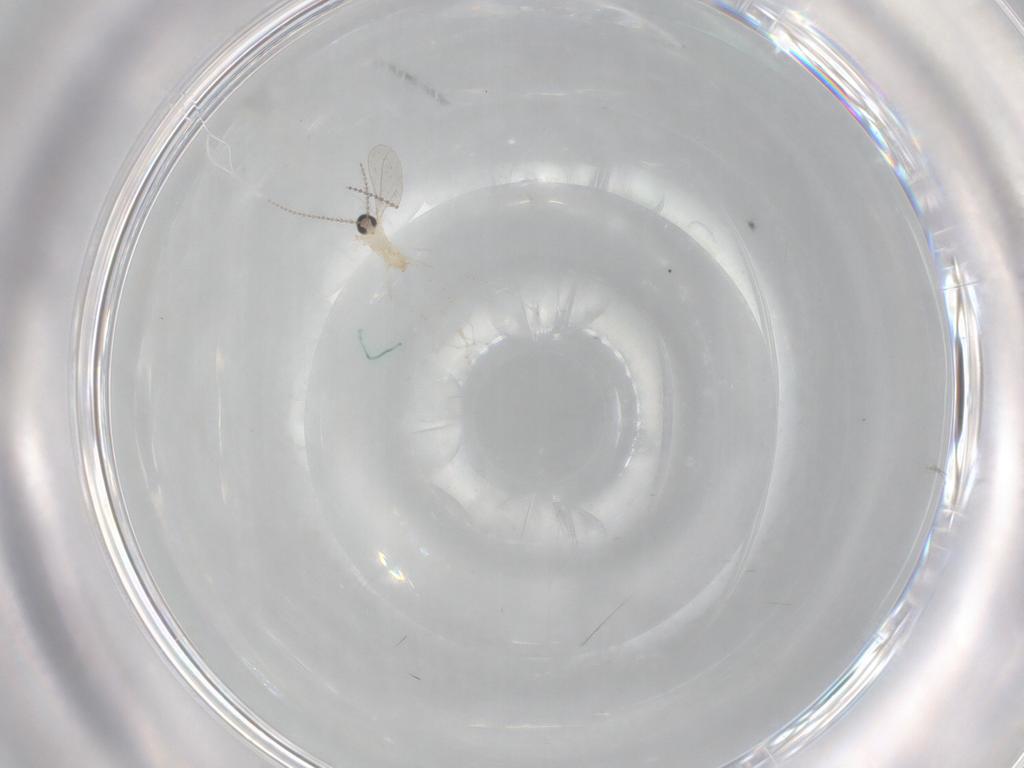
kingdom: Animalia
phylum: Arthropoda
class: Insecta
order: Diptera
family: Cecidomyiidae
